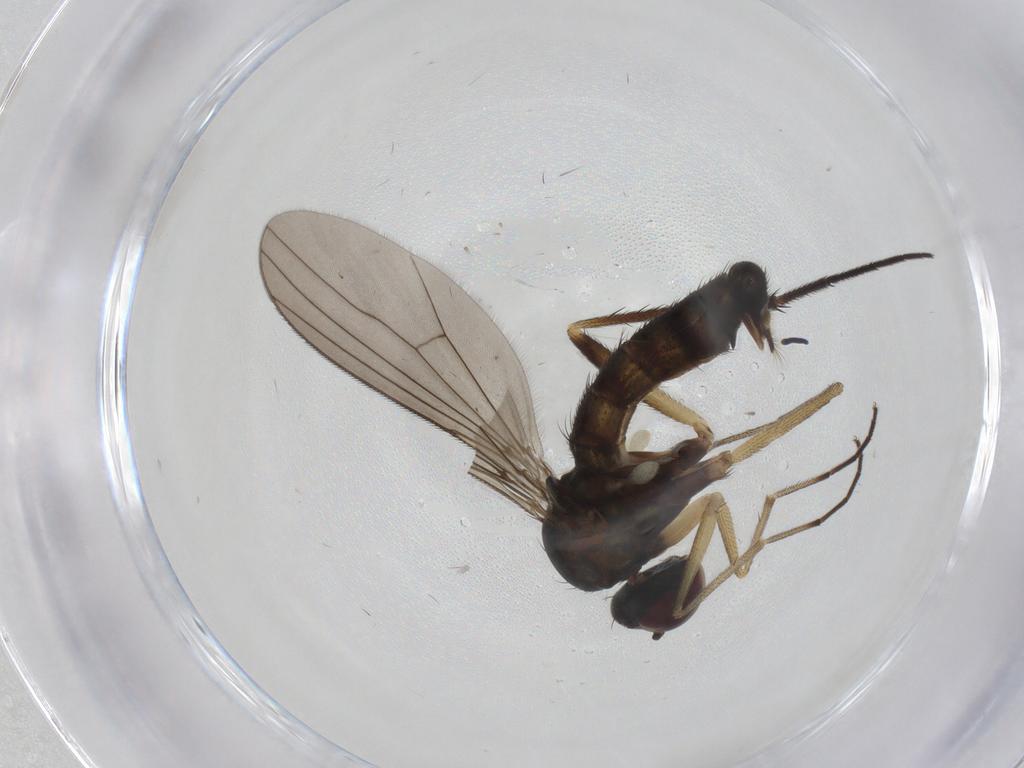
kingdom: Animalia
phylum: Arthropoda
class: Insecta
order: Diptera
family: Dolichopodidae
